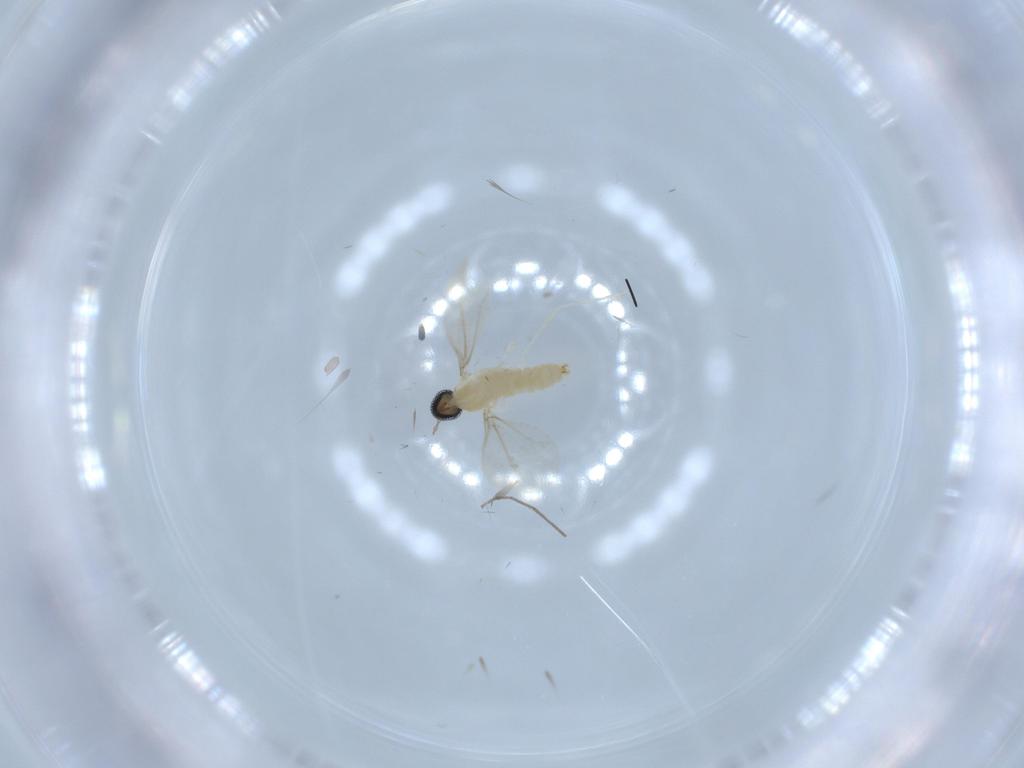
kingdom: Animalia
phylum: Arthropoda
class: Insecta
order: Diptera
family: Cecidomyiidae
